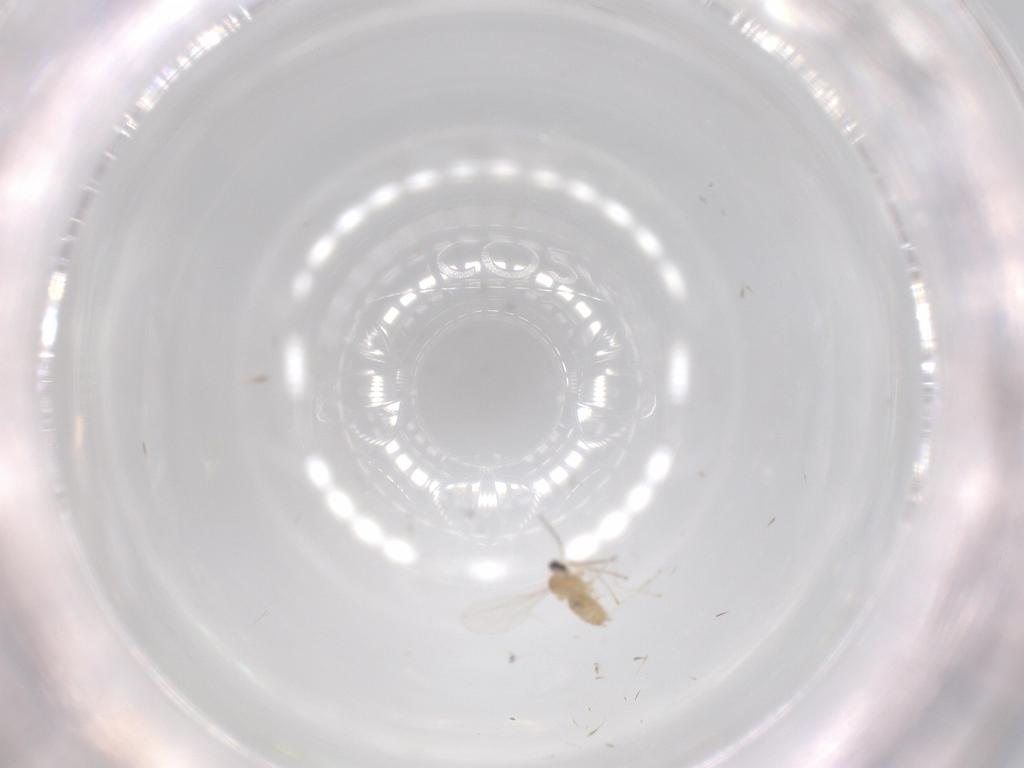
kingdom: Animalia
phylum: Arthropoda
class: Insecta
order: Diptera
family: Cecidomyiidae
